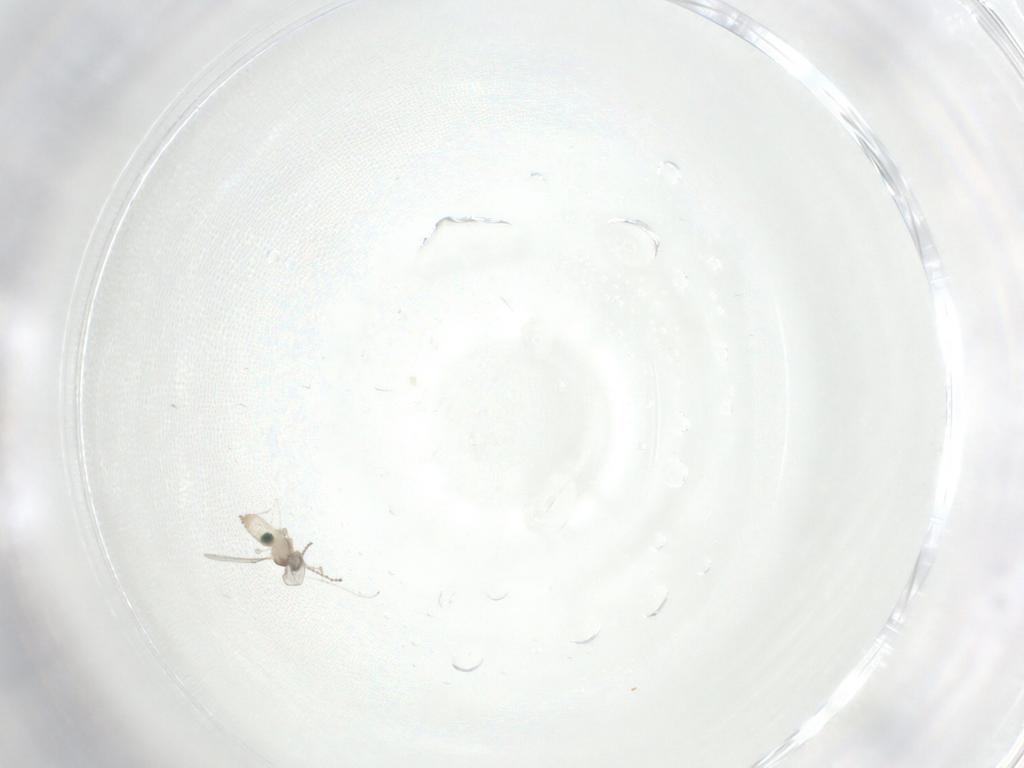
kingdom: Animalia
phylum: Arthropoda
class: Insecta
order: Diptera
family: Cecidomyiidae
